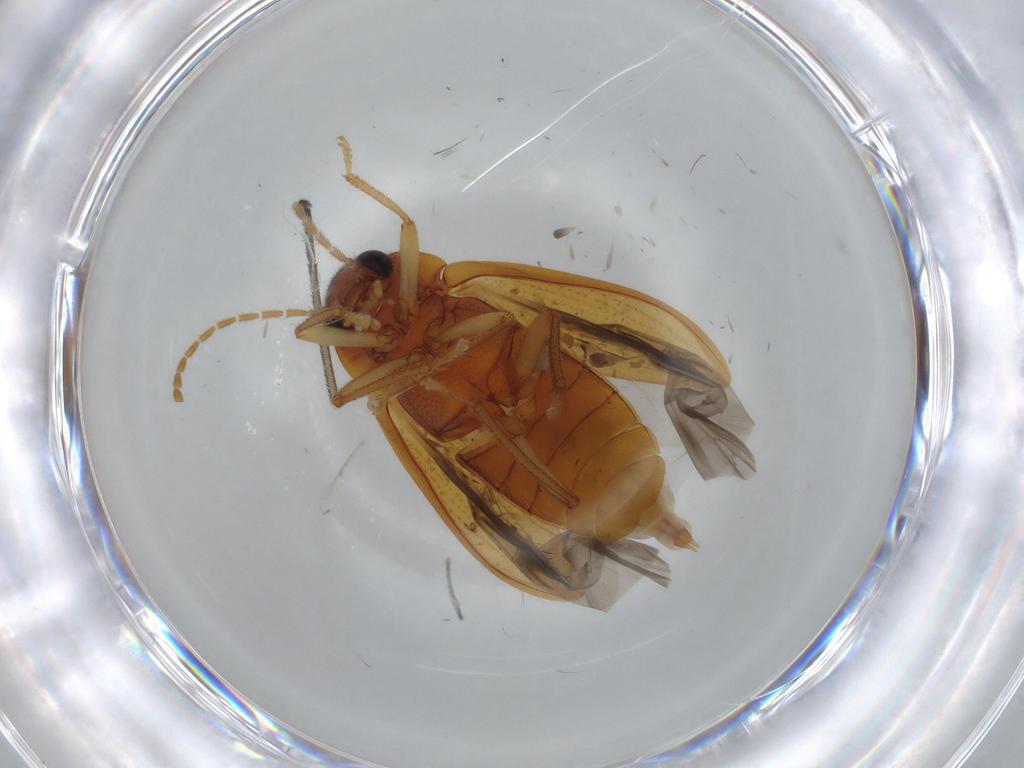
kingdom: Animalia
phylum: Arthropoda
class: Insecta
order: Coleoptera
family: Ptilodactylidae
